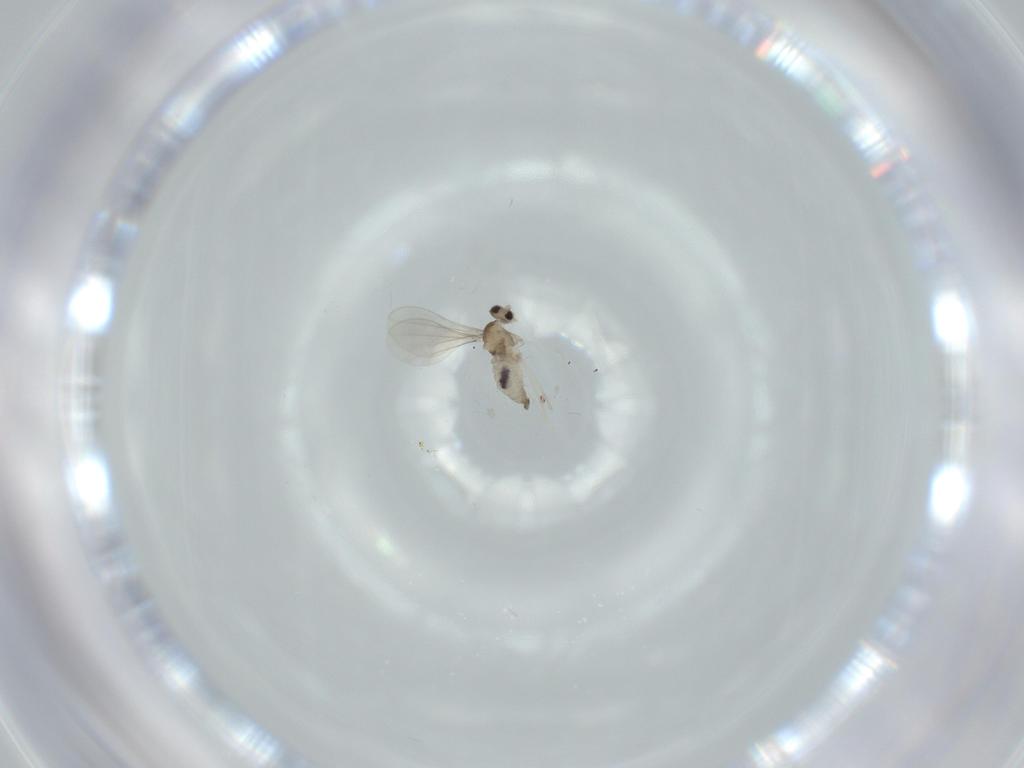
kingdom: Animalia
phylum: Arthropoda
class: Insecta
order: Diptera
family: Cecidomyiidae
